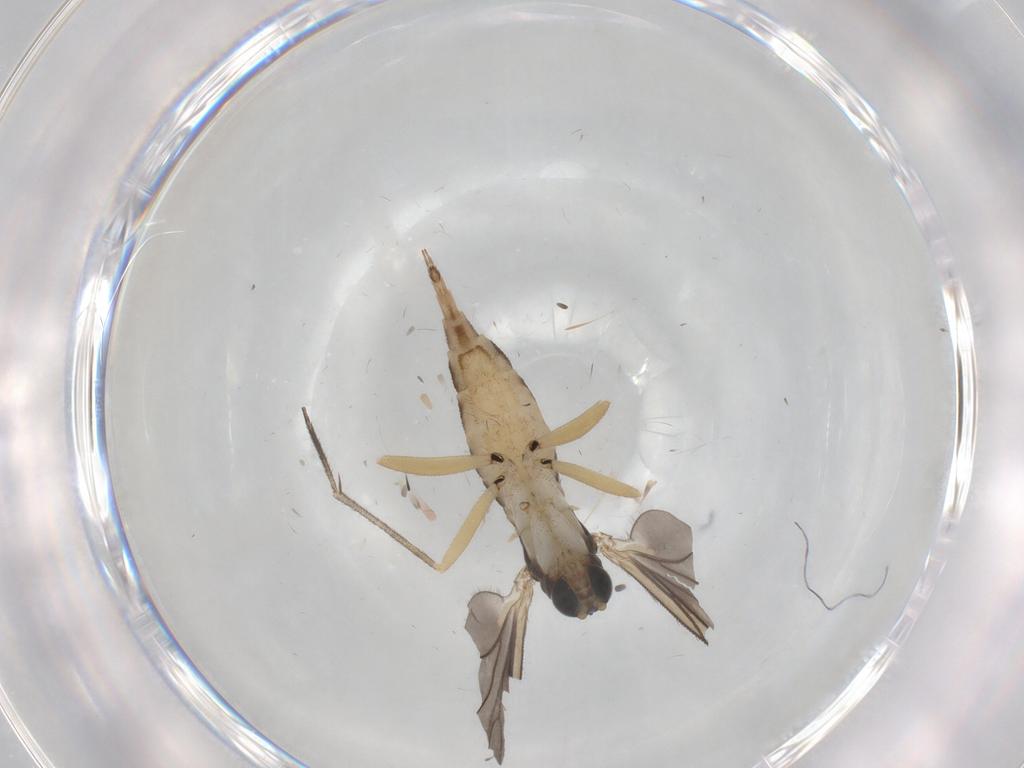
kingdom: Animalia
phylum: Arthropoda
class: Insecta
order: Diptera
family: Sciaridae
